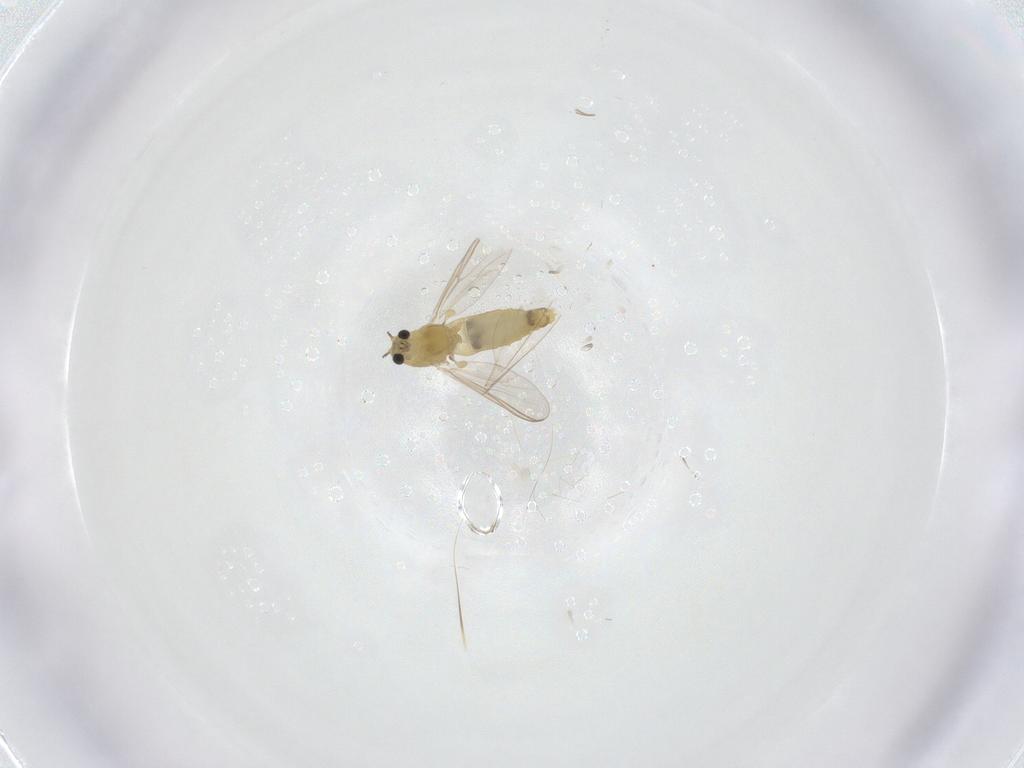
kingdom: Animalia
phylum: Arthropoda
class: Insecta
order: Diptera
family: Chironomidae
